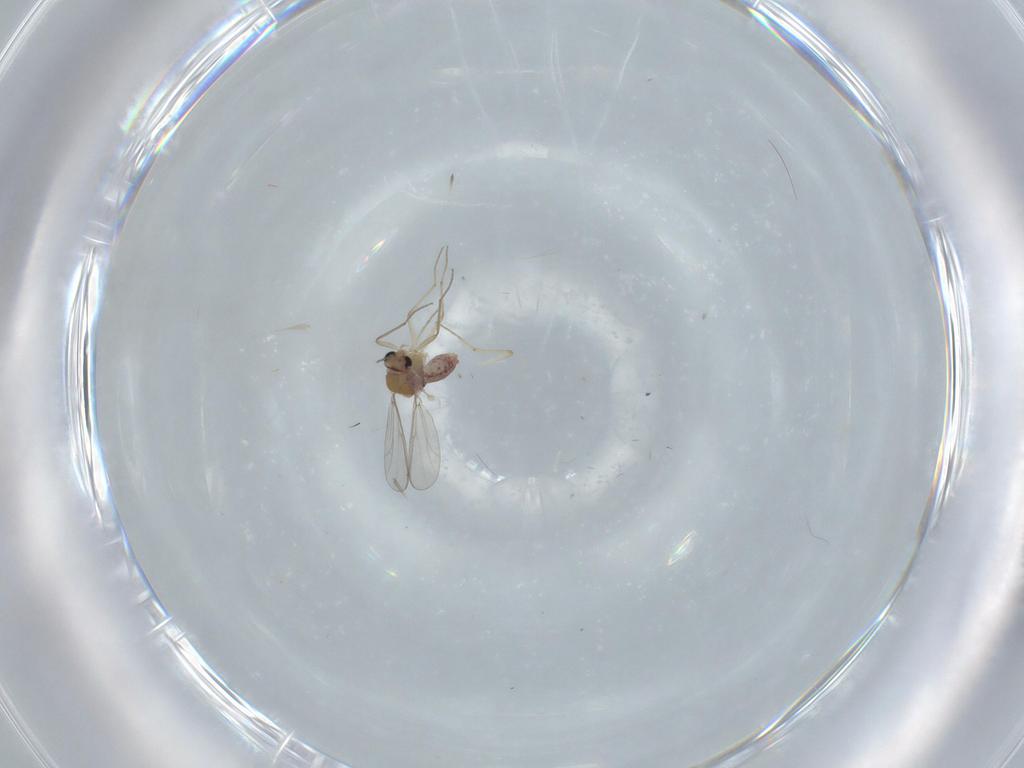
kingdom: Animalia
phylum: Arthropoda
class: Insecta
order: Diptera
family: Chironomidae
